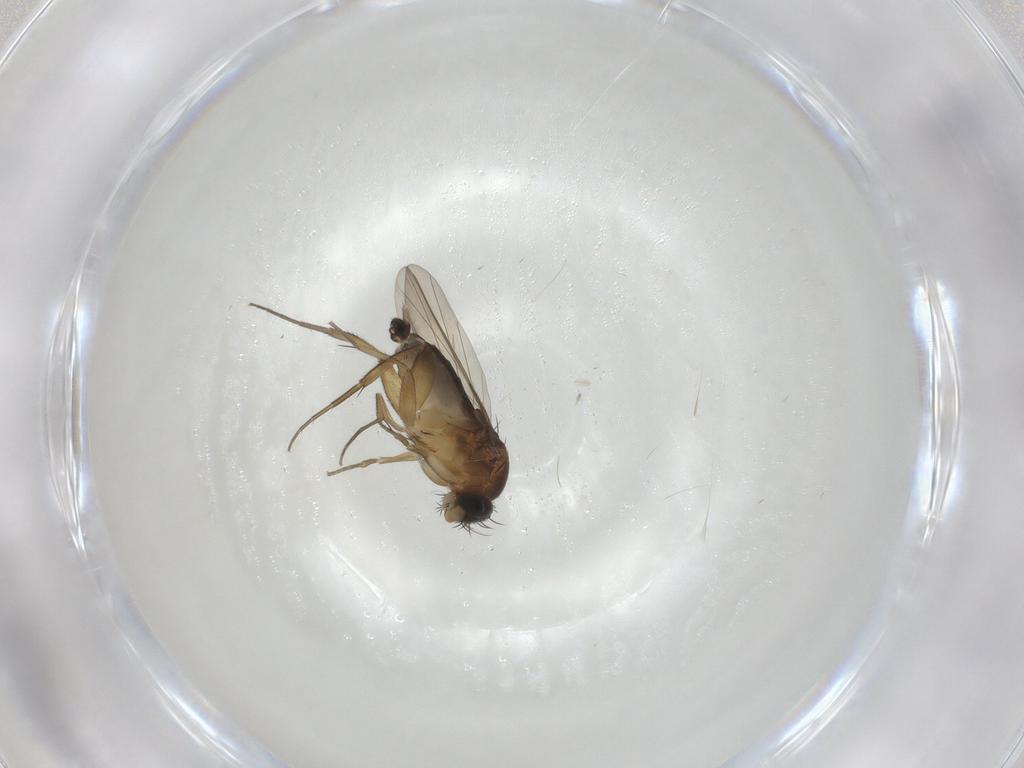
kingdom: Animalia
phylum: Arthropoda
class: Insecta
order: Diptera
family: Phoridae
